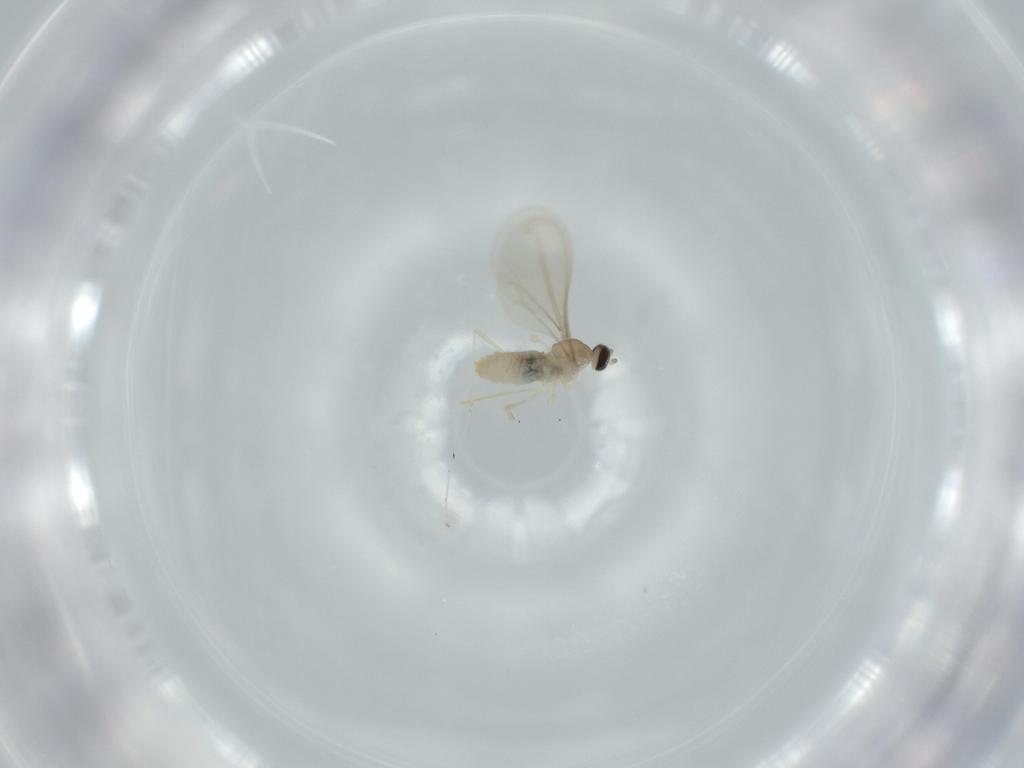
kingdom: Animalia
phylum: Arthropoda
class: Insecta
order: Diptera
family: Cecidomyiidae
